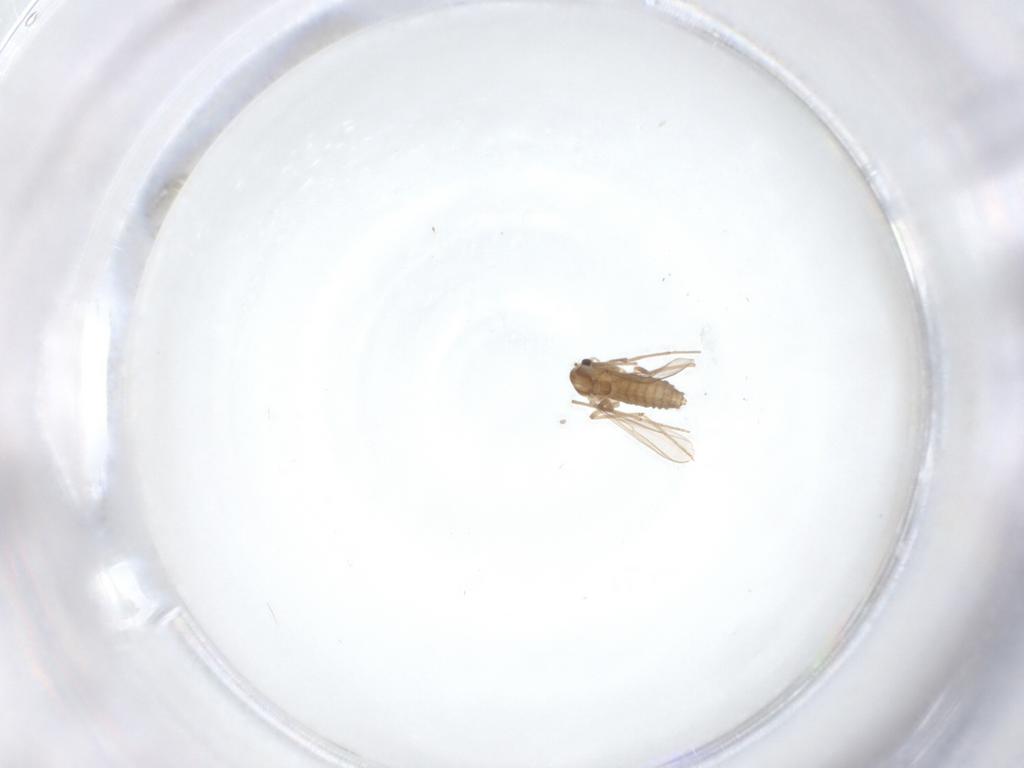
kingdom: Animalia
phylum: Arthropoda
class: Insecta
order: Diptera
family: Chironomidae
